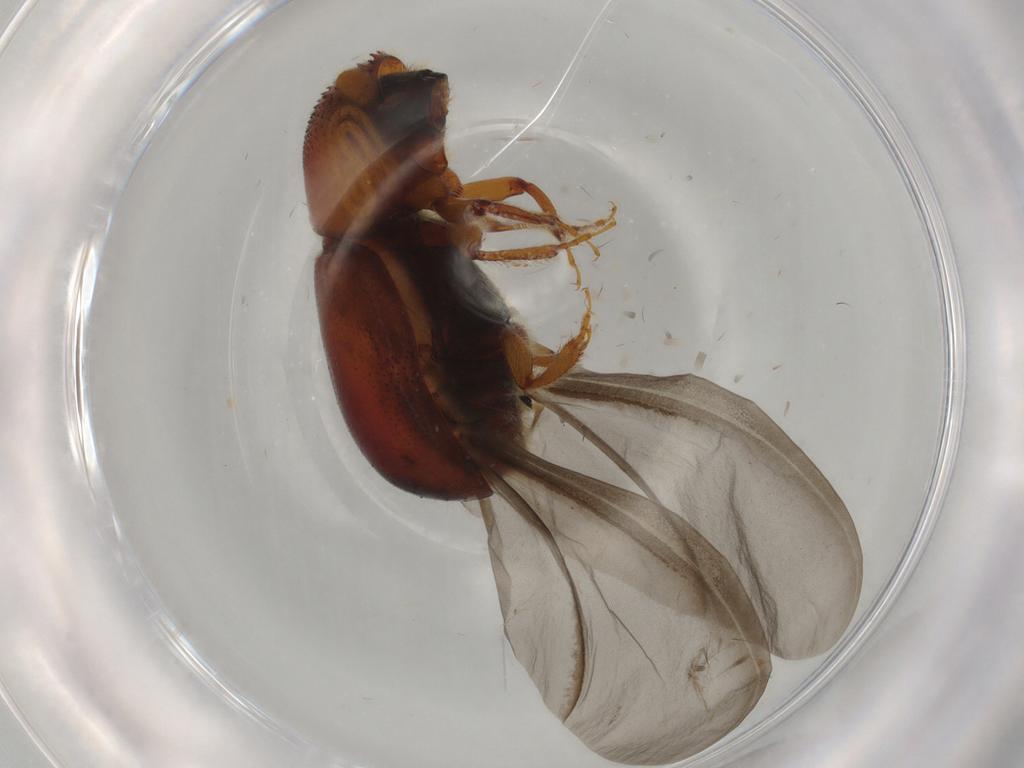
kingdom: Animalia
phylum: Arthropoda
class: Insecta
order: Coleoptera
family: Curculionidae
